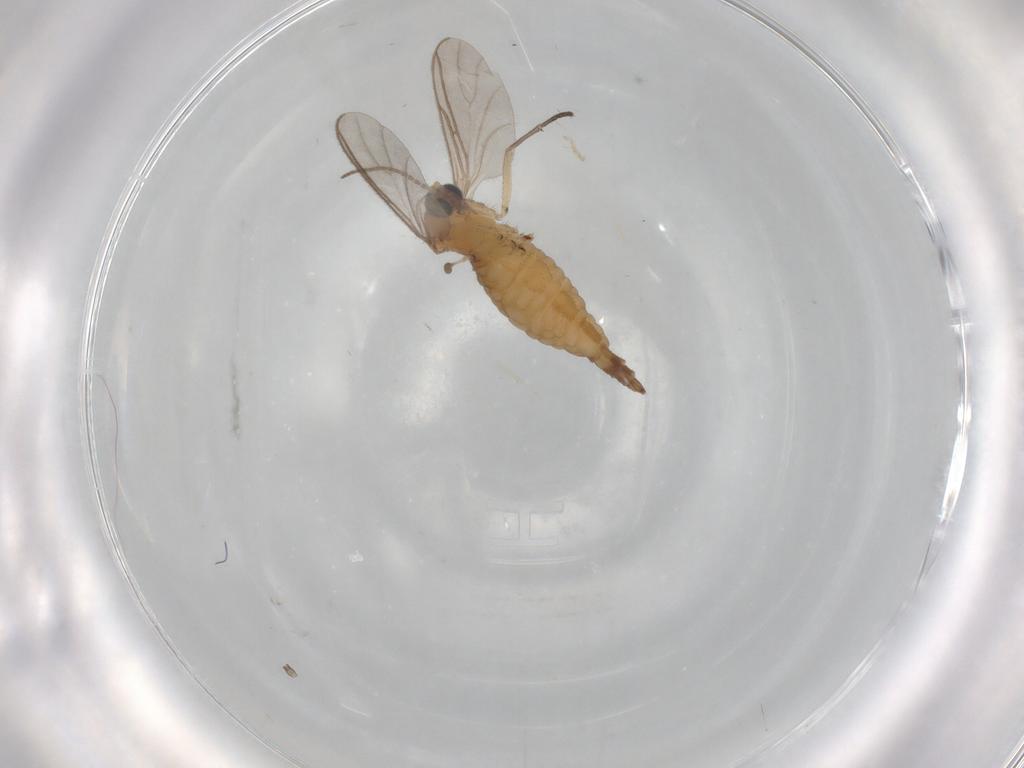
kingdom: Animalia
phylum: Arthropoda
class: Insecta
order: Diptera
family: Sciaridae
